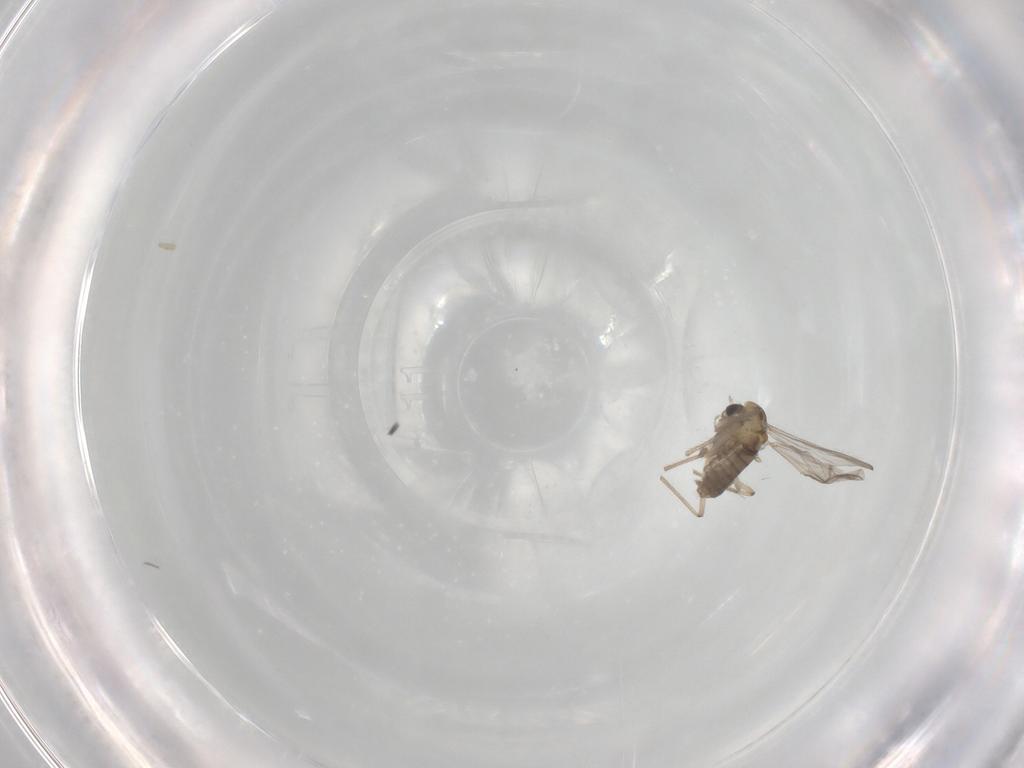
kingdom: Animalia
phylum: Arthropoda
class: Insecta
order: Diptera
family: Chironomidae
